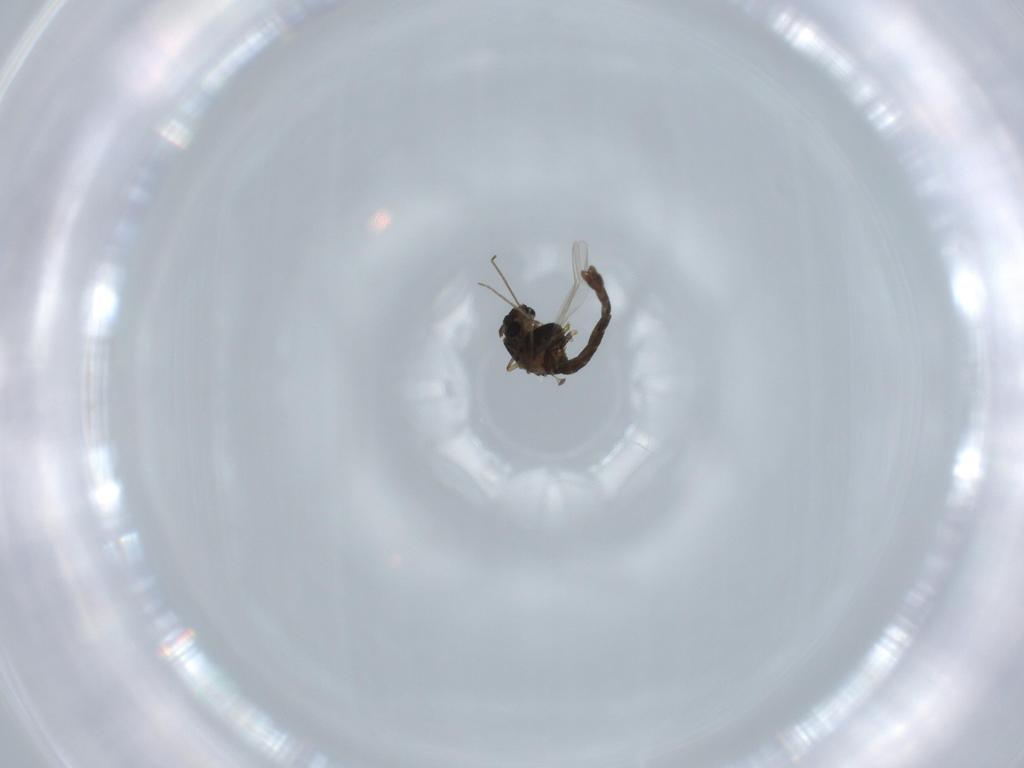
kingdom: Animalia
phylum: Arthropoda
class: Insecta
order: Diptera
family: Chironomidae
